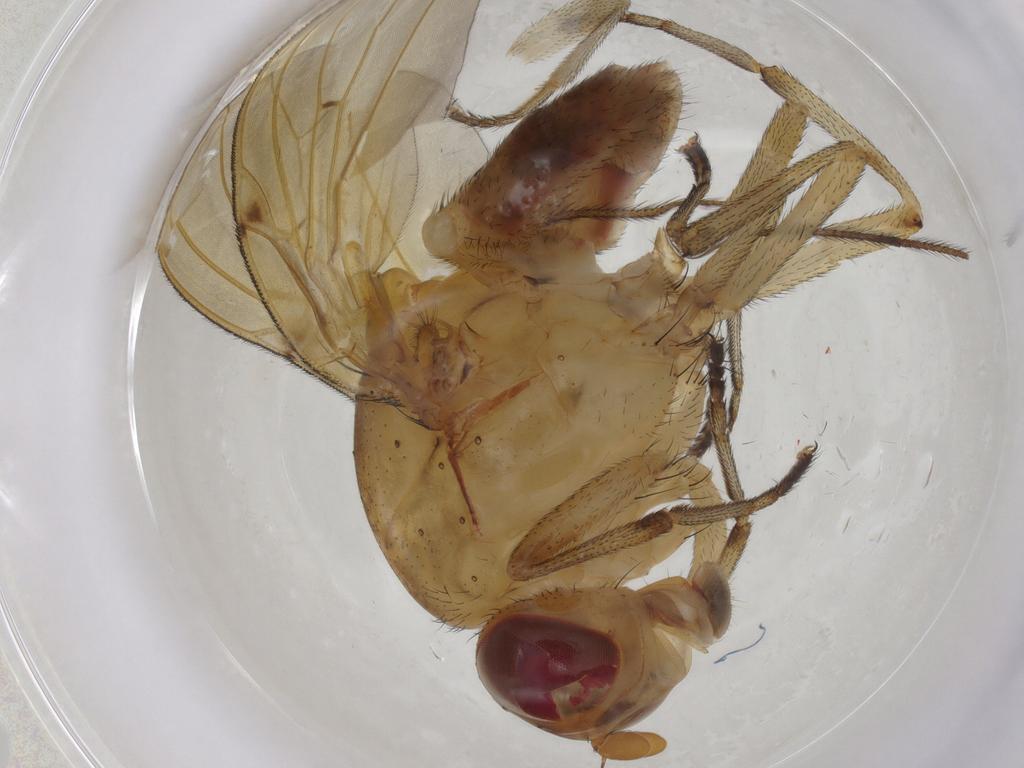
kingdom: Animalia
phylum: Arthropoda
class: Insecta
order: Diptera
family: Limoniidae
